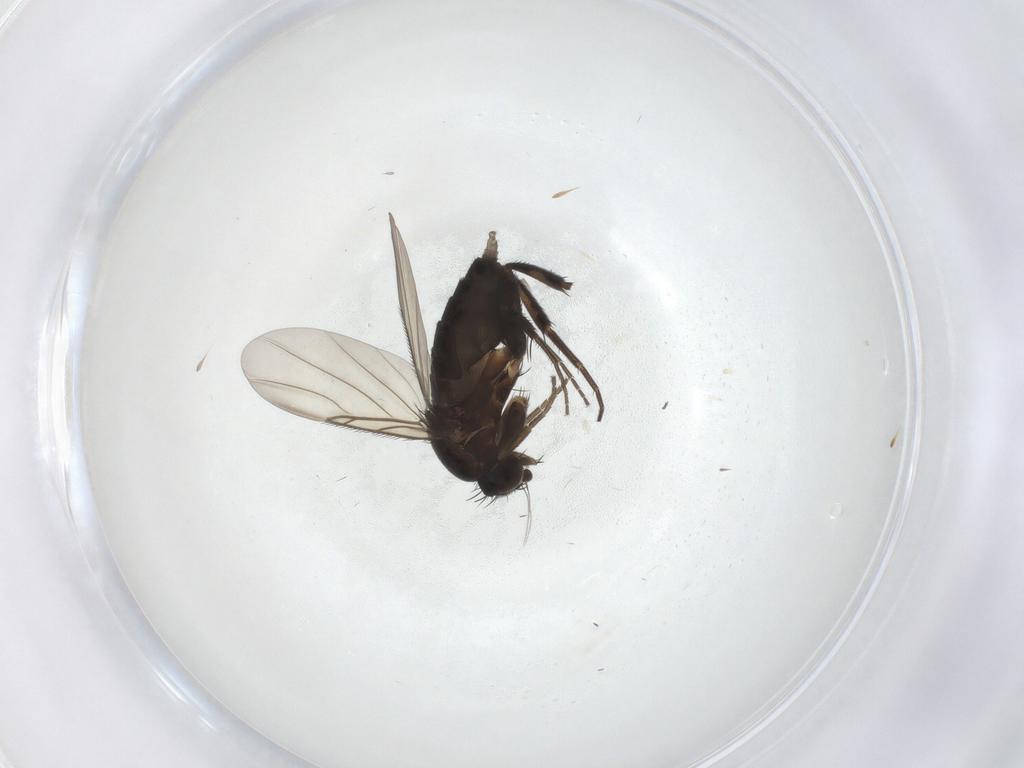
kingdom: Animalia
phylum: Arthropoda
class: Insecta
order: Diptera
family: Phoridae
